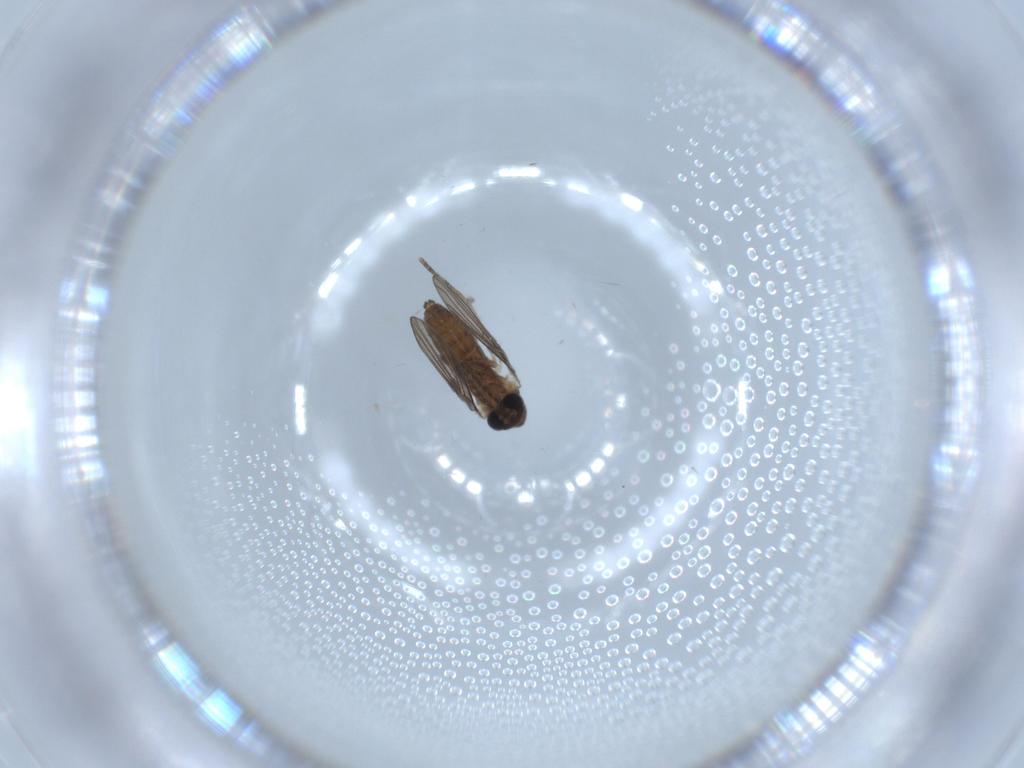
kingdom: Animalia
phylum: Arthropoda
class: Insecta
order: Diptera
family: Psychodidae
